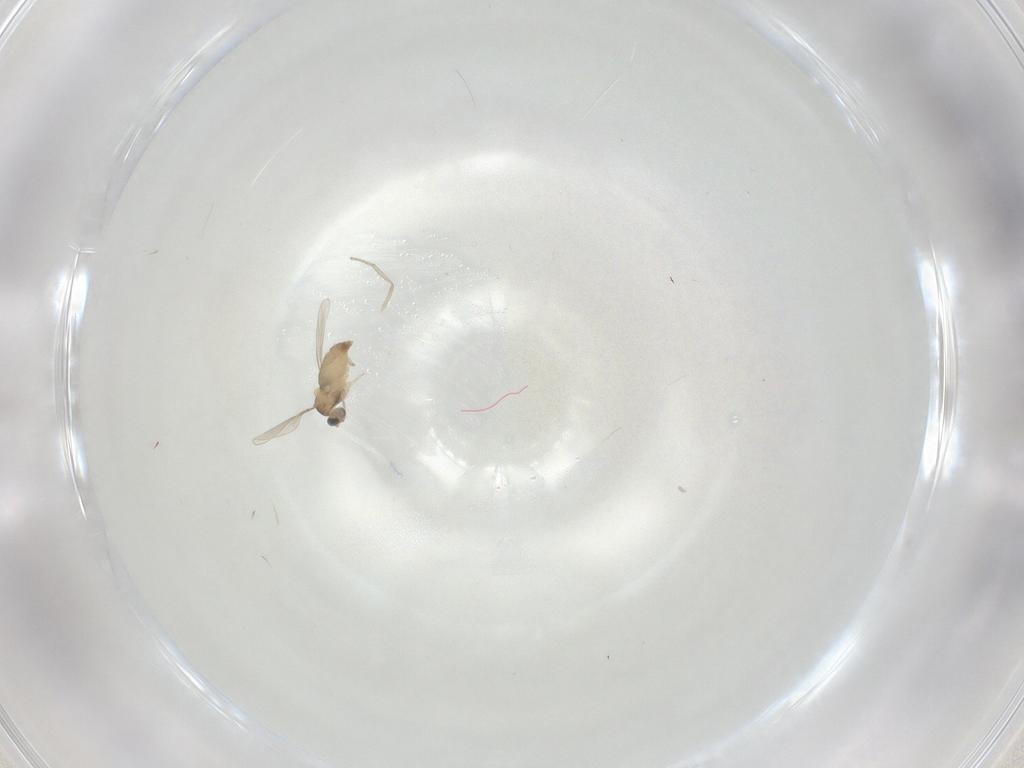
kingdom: Animalia
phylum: Arthropoda
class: Insecta
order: Diptera
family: Psychodidae
